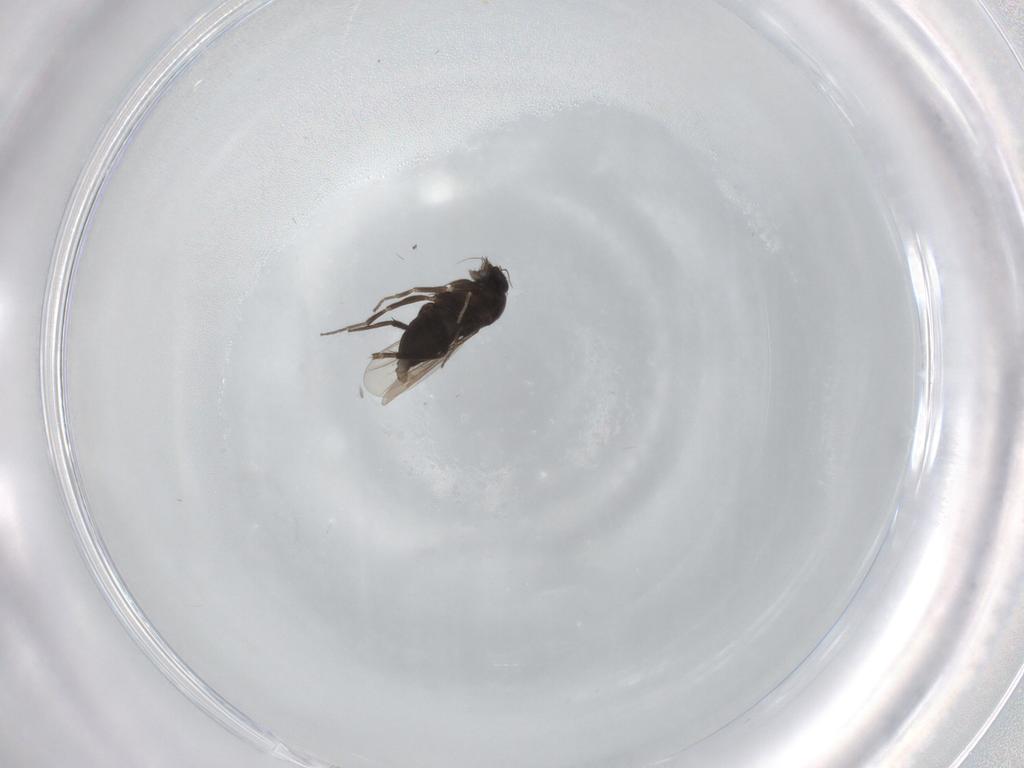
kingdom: Animalia
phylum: Arthropoda
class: Insecta
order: Diptera
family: Phoridae
